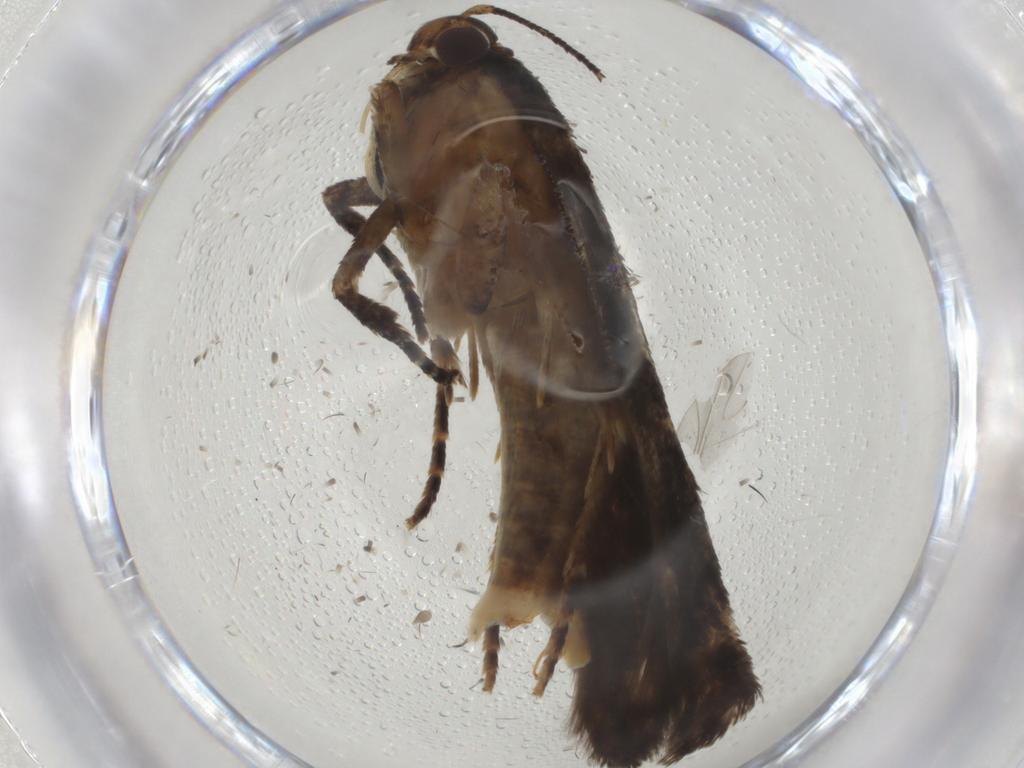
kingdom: Animalia
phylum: Arthropoda
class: Insecta
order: Lepidoptera
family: Gelechiidae
